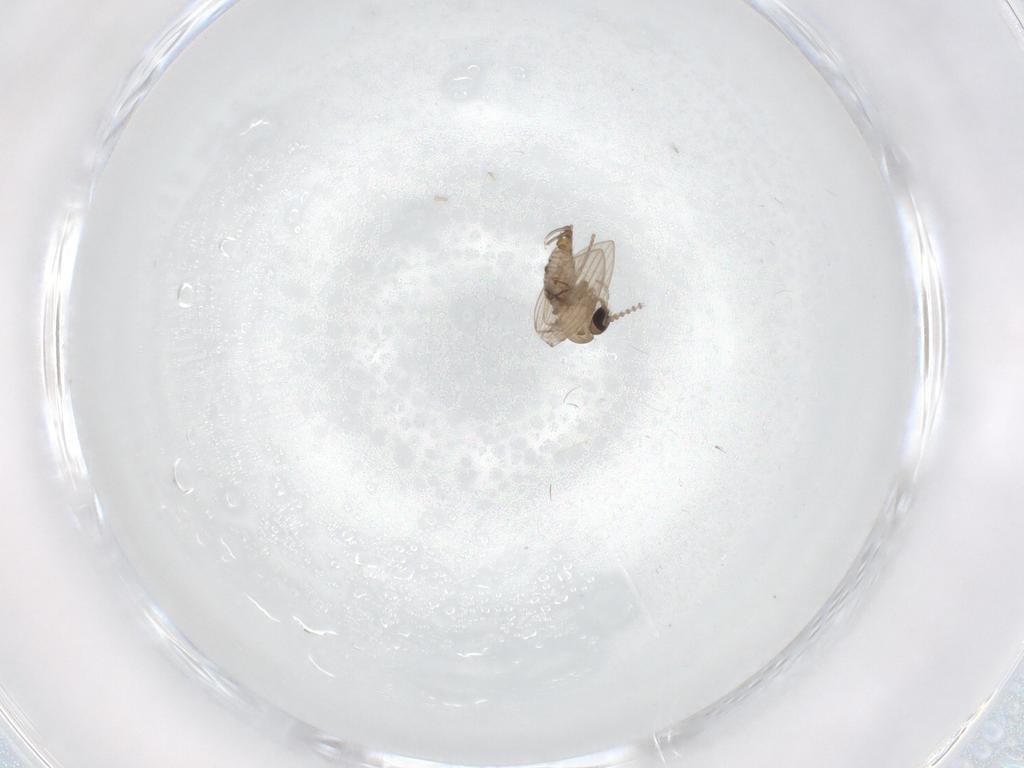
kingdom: Animalia
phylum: Arthropoda
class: Insecta
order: Diptera
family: Psychodidae
